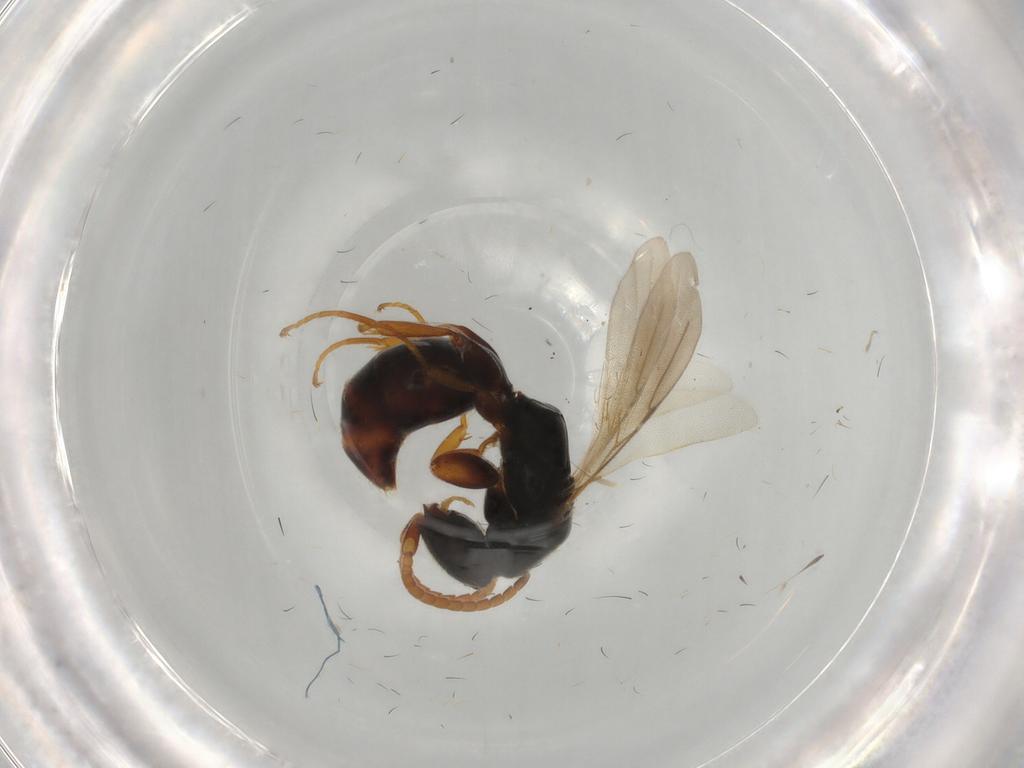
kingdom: Animalia
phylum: Arthropoda
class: Insecta
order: Hymenoptera
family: Bethylidae
